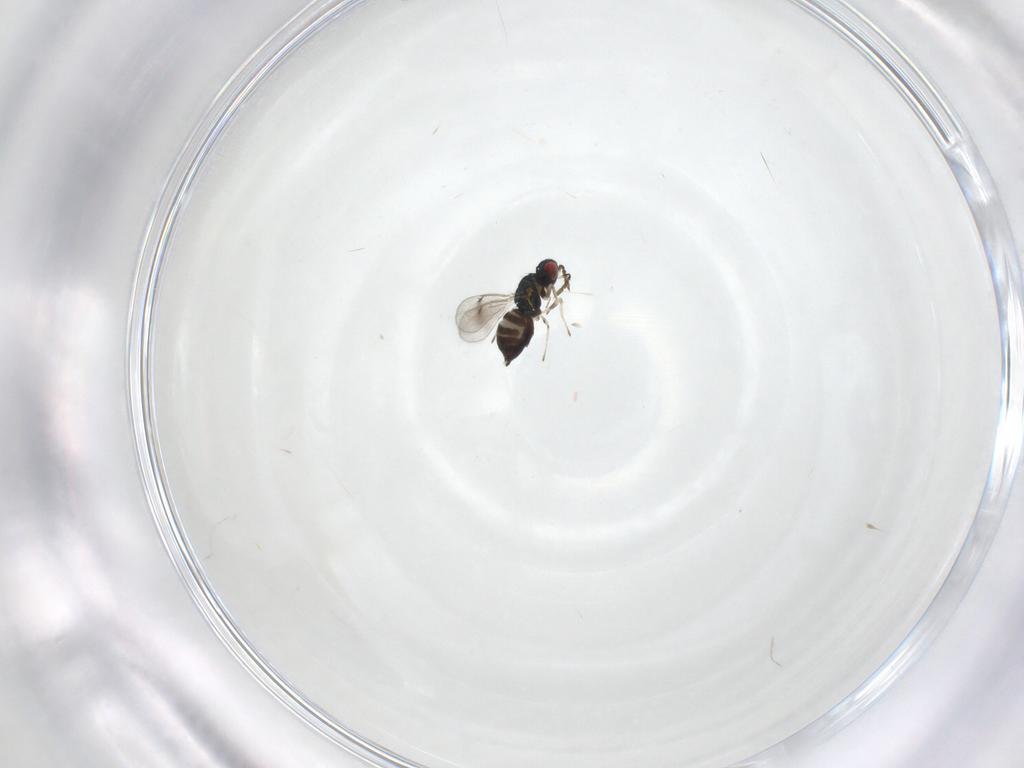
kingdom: Animalia
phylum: Arthropoda
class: Insecta
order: Hymenoptera
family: Eulophidae
